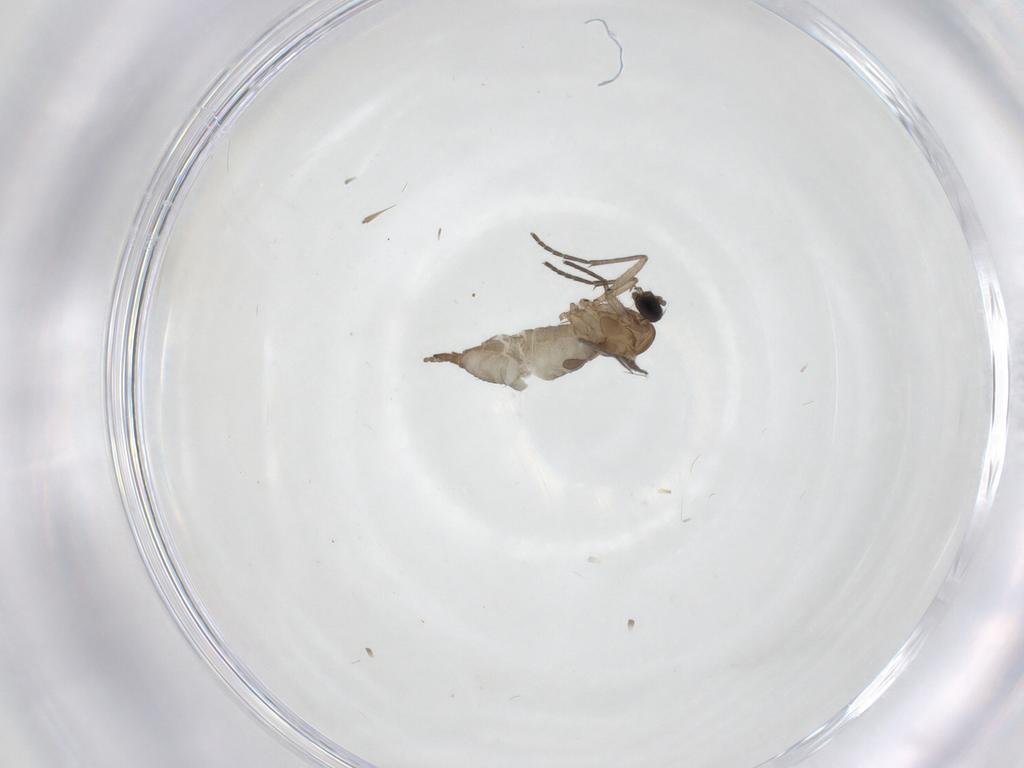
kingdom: Animalia
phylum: Arthropoda
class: Insecta
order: Diptera
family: Sciaridae
